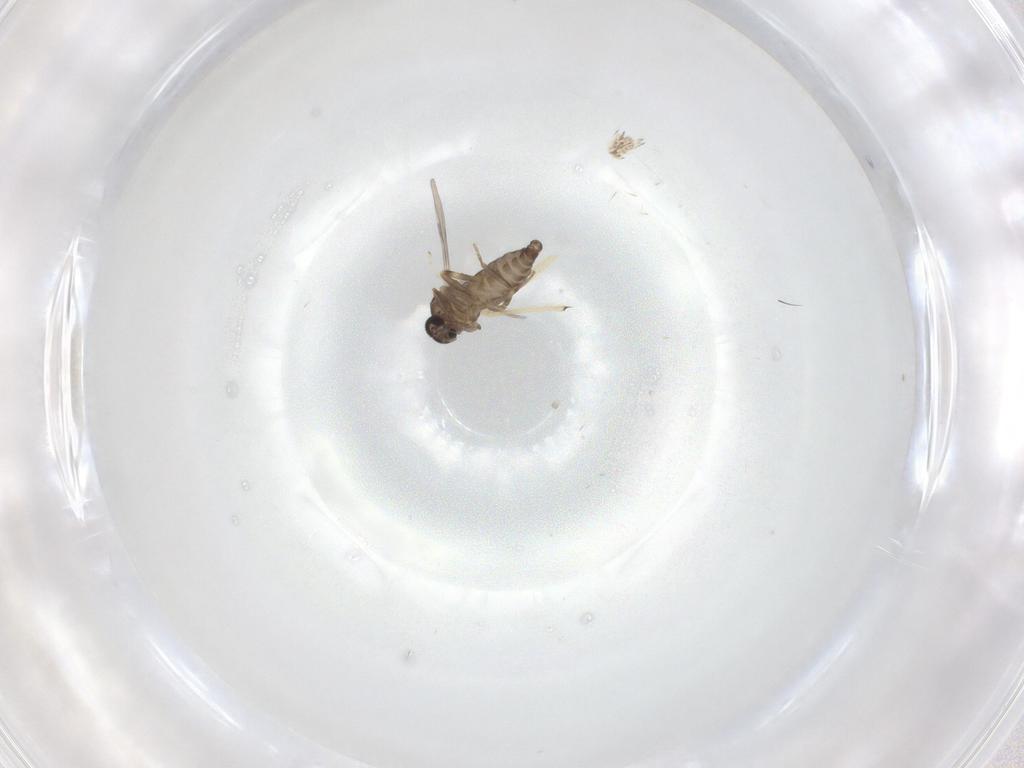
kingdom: Animalia
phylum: Arthropoda
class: Insecta
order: Diptera
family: Ceratopogonidae
